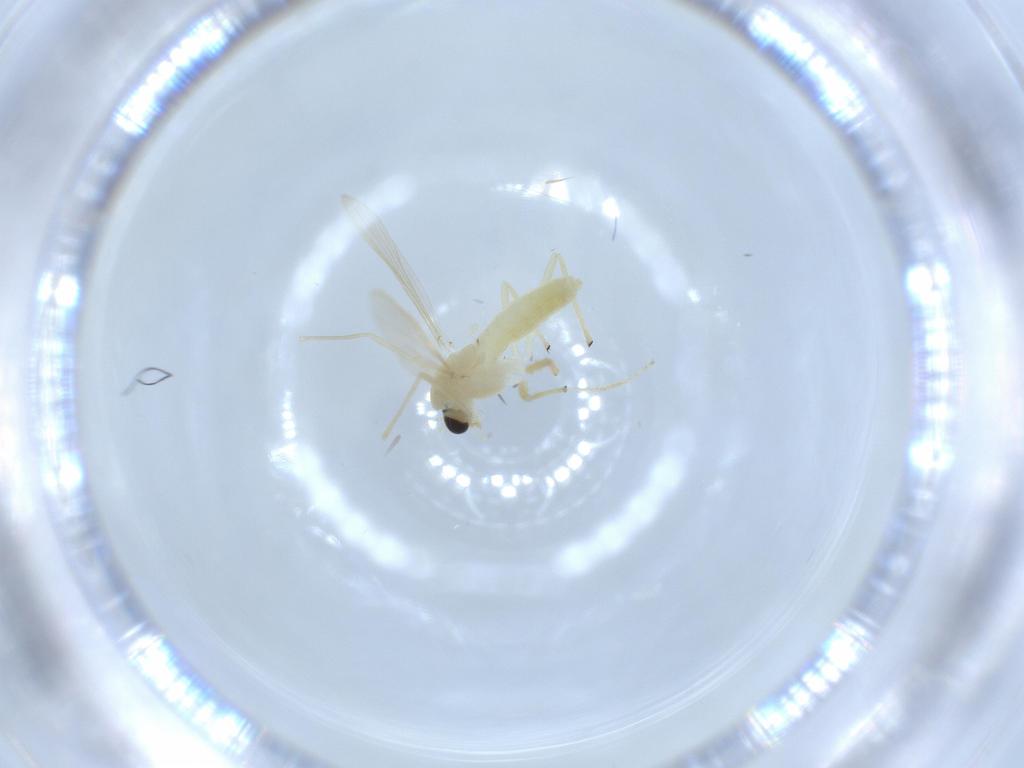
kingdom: Animalia
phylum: Arthropoda
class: Insecta
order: Diptera
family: Chironomidae
